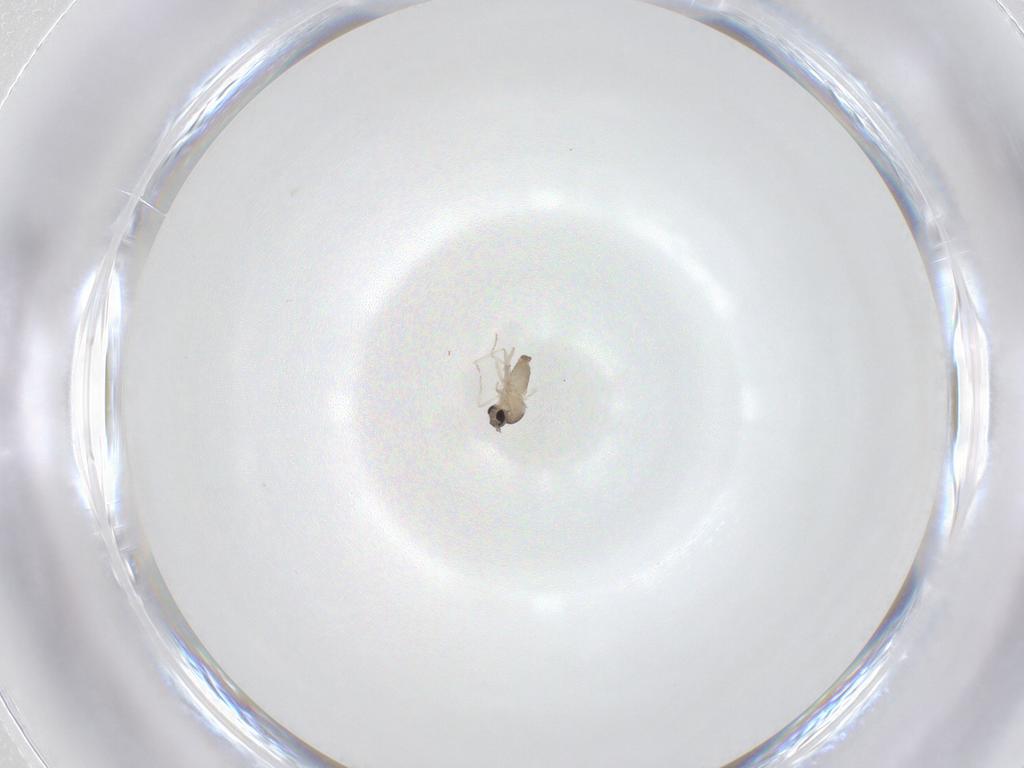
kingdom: Animalia
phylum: Arthropoda
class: Insecta
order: Diptera
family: Cecidomyiidae
